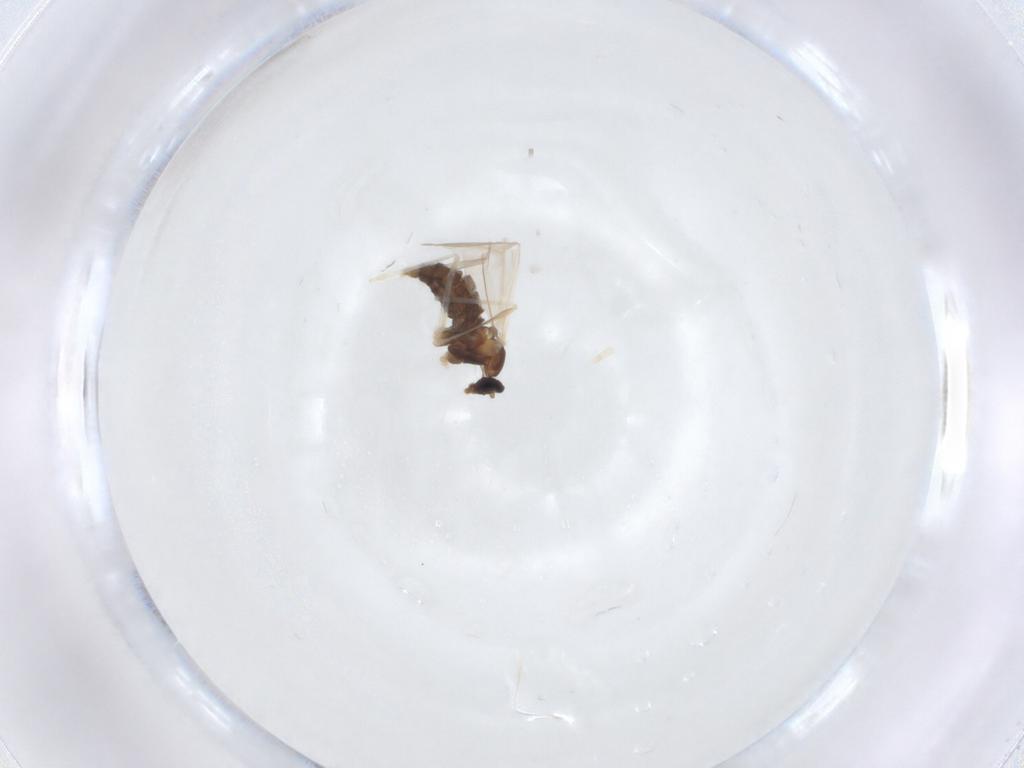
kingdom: Animalia
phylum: Arthropoda
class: Insecta
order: Diptera
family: Cecidomyiidae
